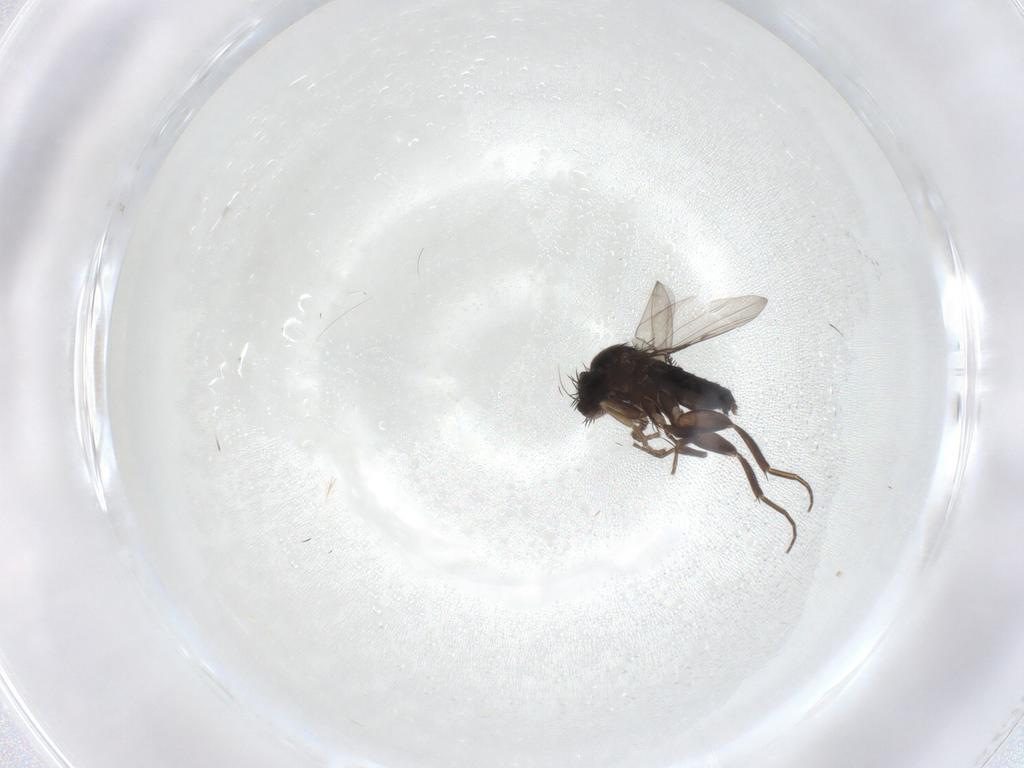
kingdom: Animalia
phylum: Arthropoda
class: Insecta
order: Diptera
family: Phoridae
